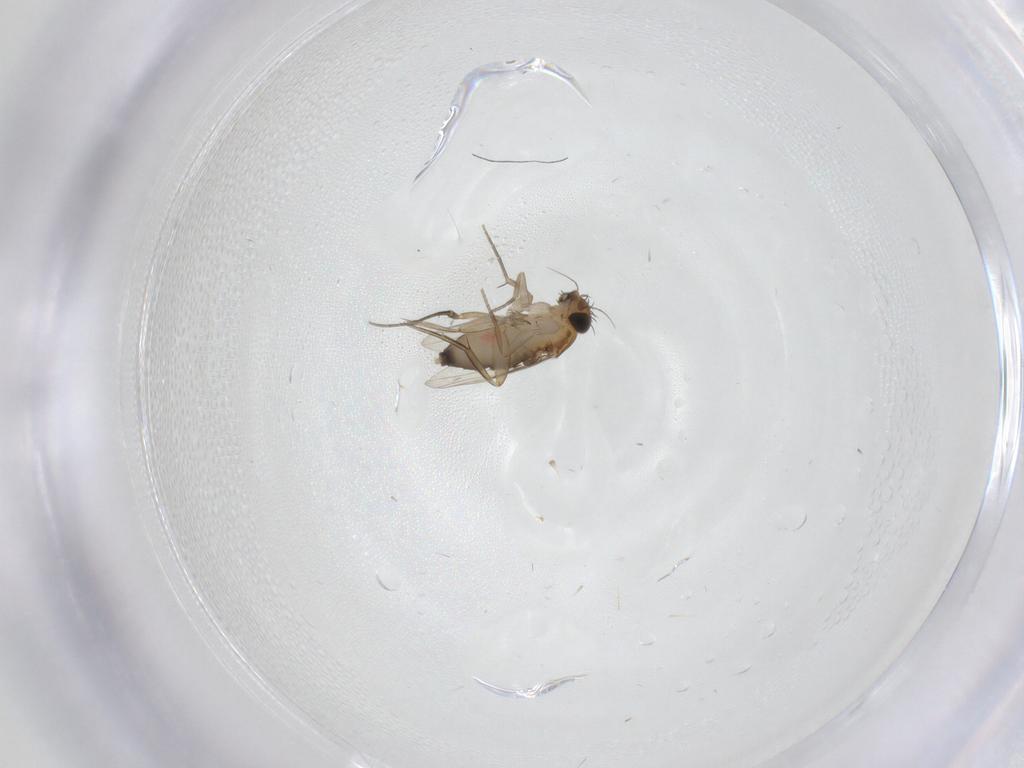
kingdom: Animalia
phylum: Arthropoda
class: Insecta
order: Diptera
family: Phoridae
